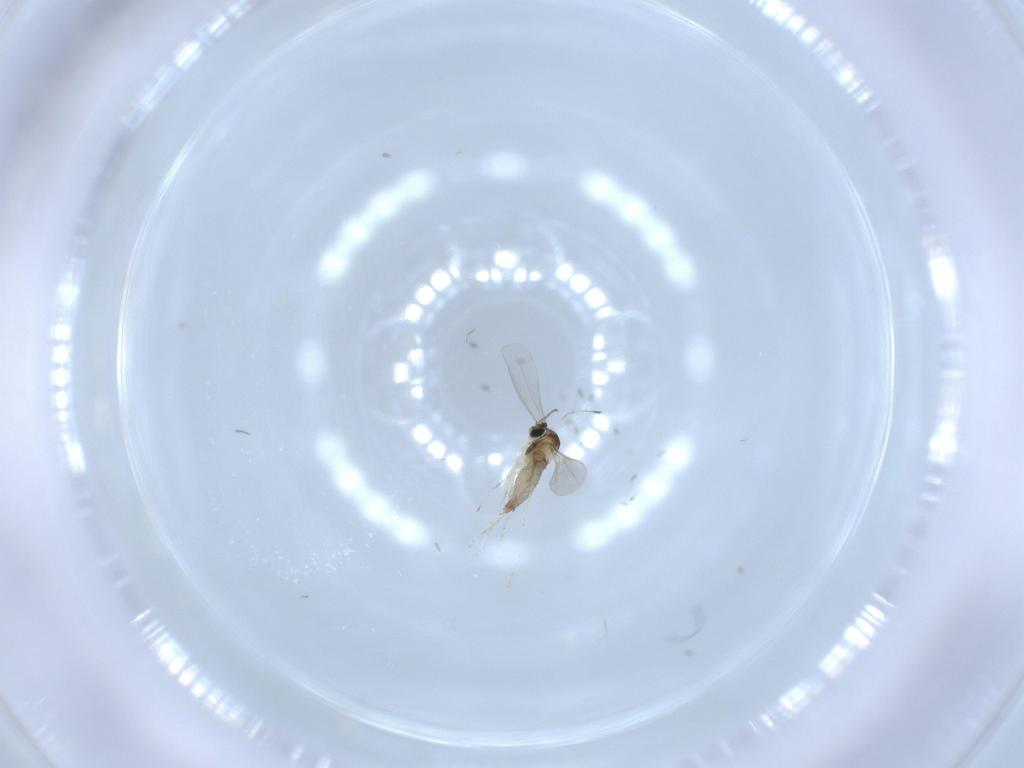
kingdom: Animalia
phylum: Arthropoda
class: Insecta
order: Diptera
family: Sciaridae
